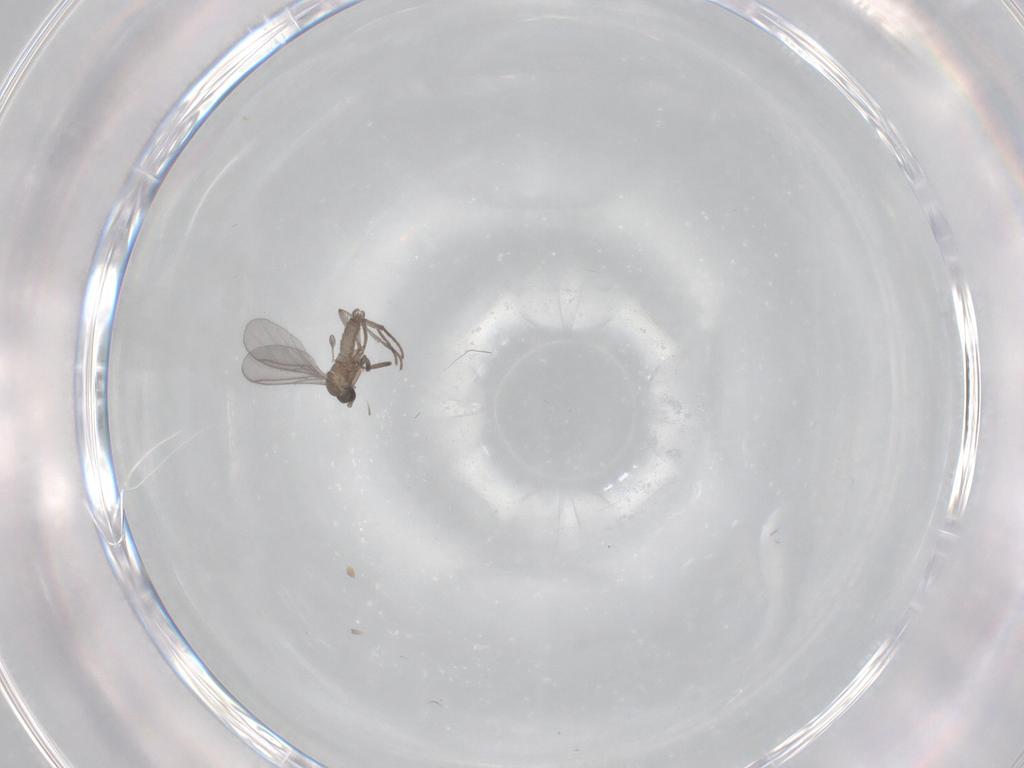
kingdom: Animalia
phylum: Arthropoda
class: Insecta
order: Diptera
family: Sciaridae
